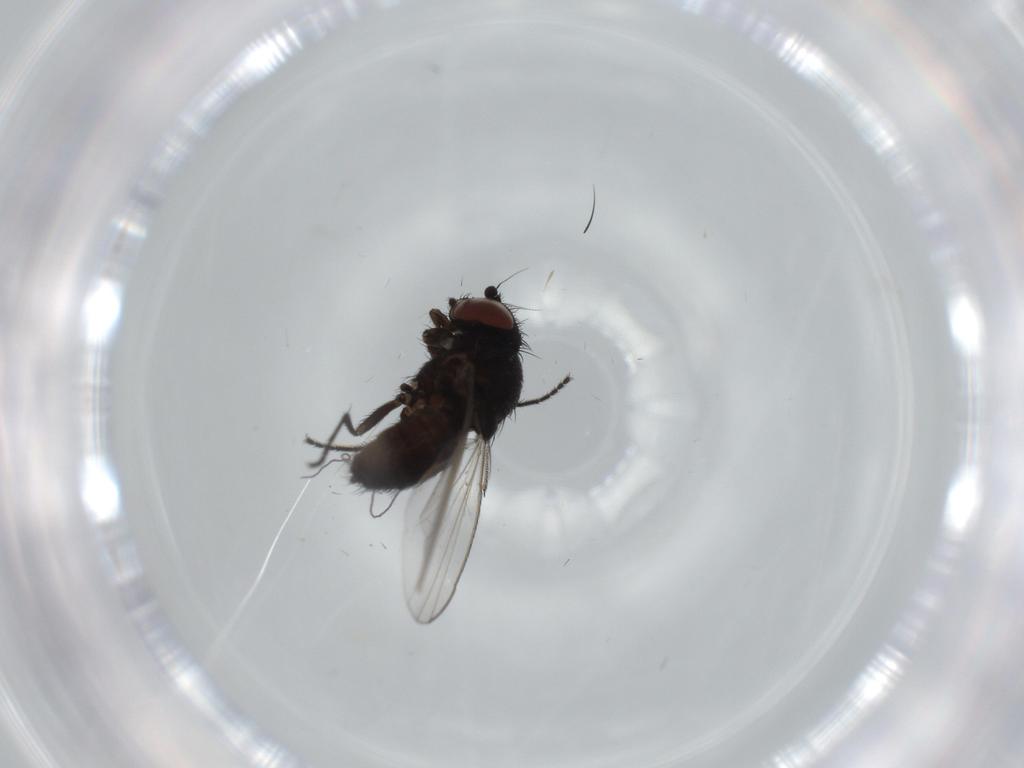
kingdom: Animalia
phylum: Arthropoda
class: Insecta
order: Diptera
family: Milichiidae
